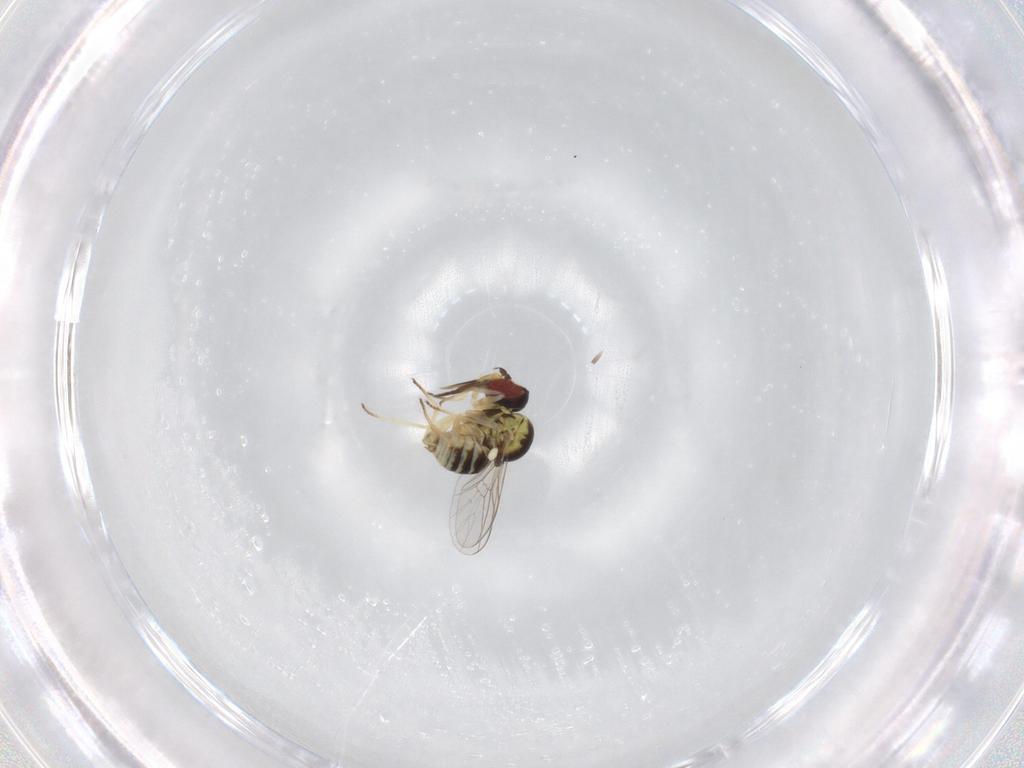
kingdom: Animalia
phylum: Arthropoda
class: Insecta
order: Diptera
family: Bombyliidae
